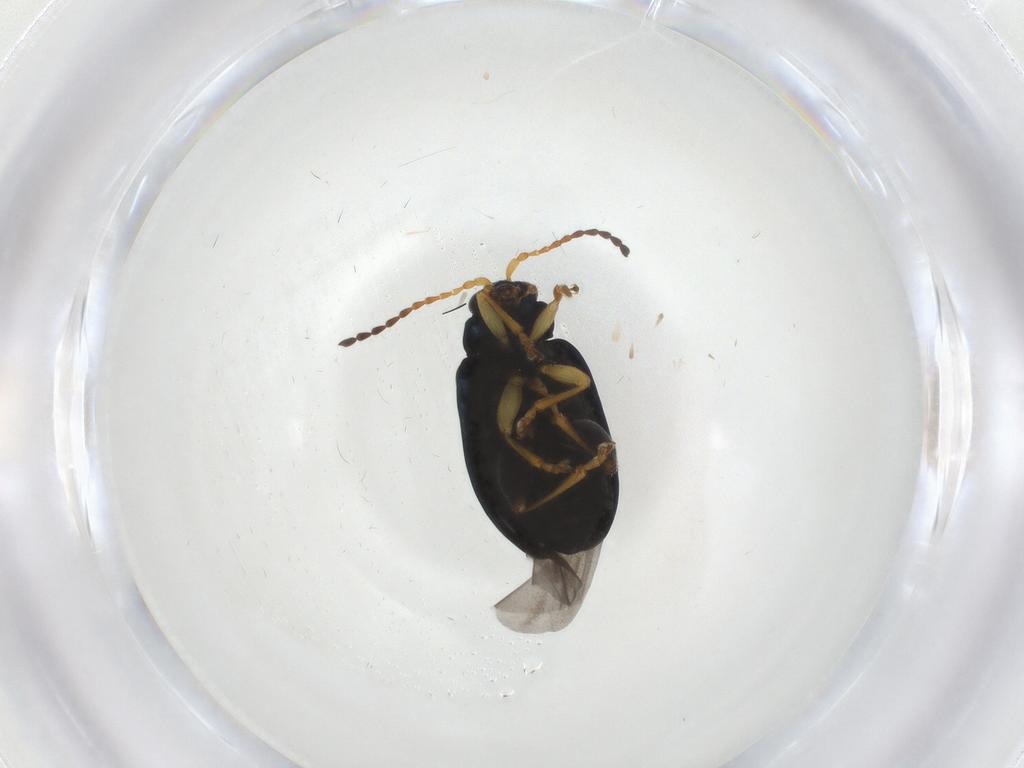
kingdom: Animalia
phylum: Arthropoda
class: Insecta
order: Coleoptera
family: Chrysomelidae
